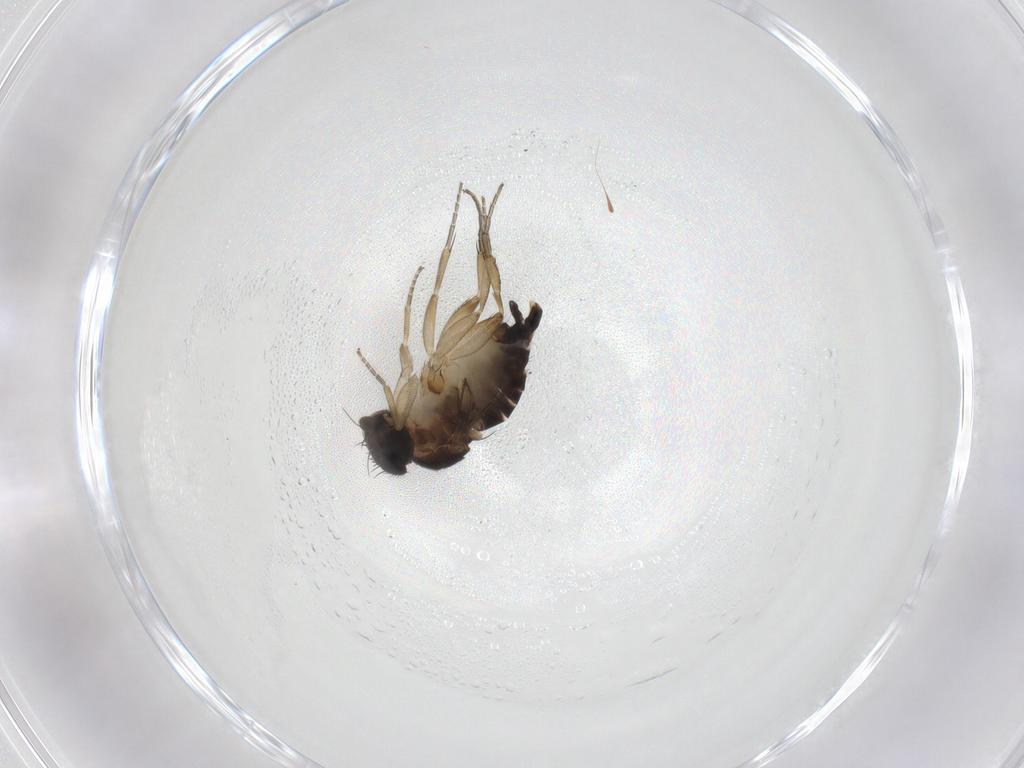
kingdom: Animalia
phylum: Arthropoda
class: Insecta
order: Diptera
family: Phoridae
